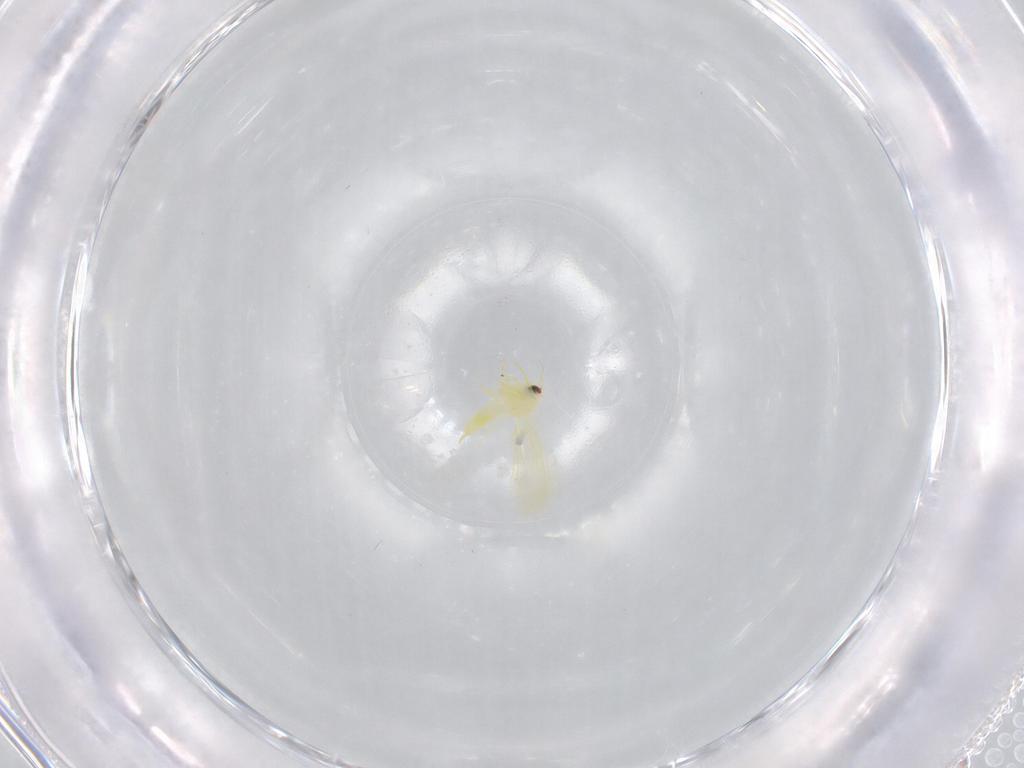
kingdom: Animalia
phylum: Arthropoda
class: Insecta
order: Hemiptera
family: Aleyrodidae
